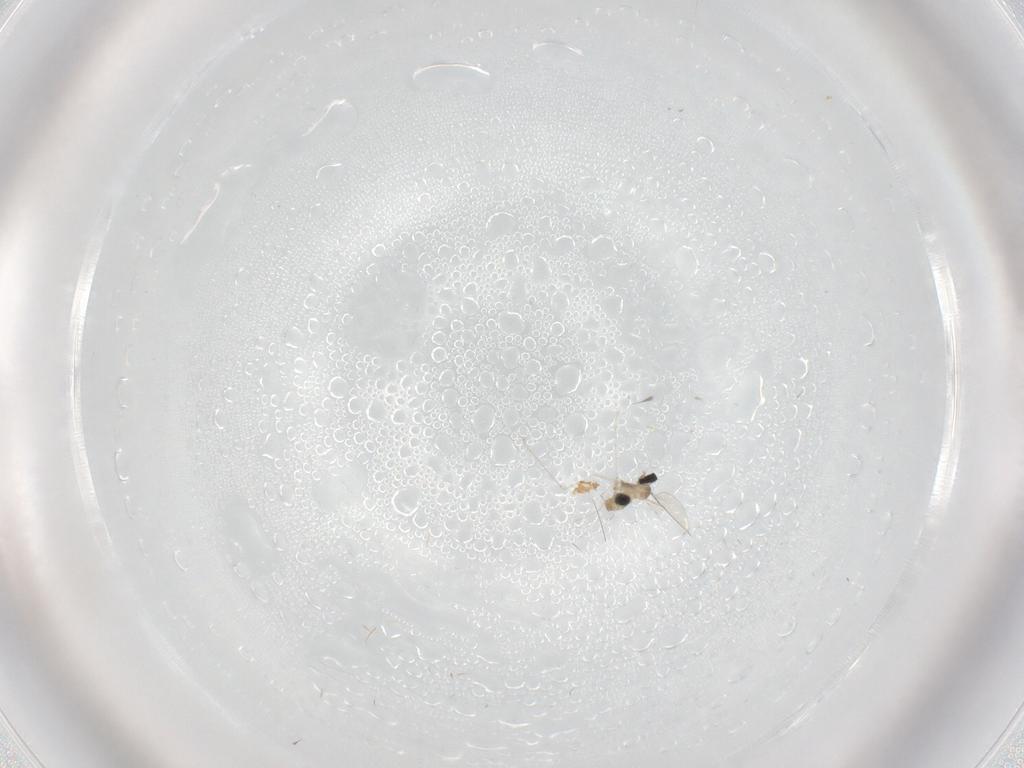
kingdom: Animalia
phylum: Arthropoda
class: Insecta
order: Diptera
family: Cecidomyiidae
